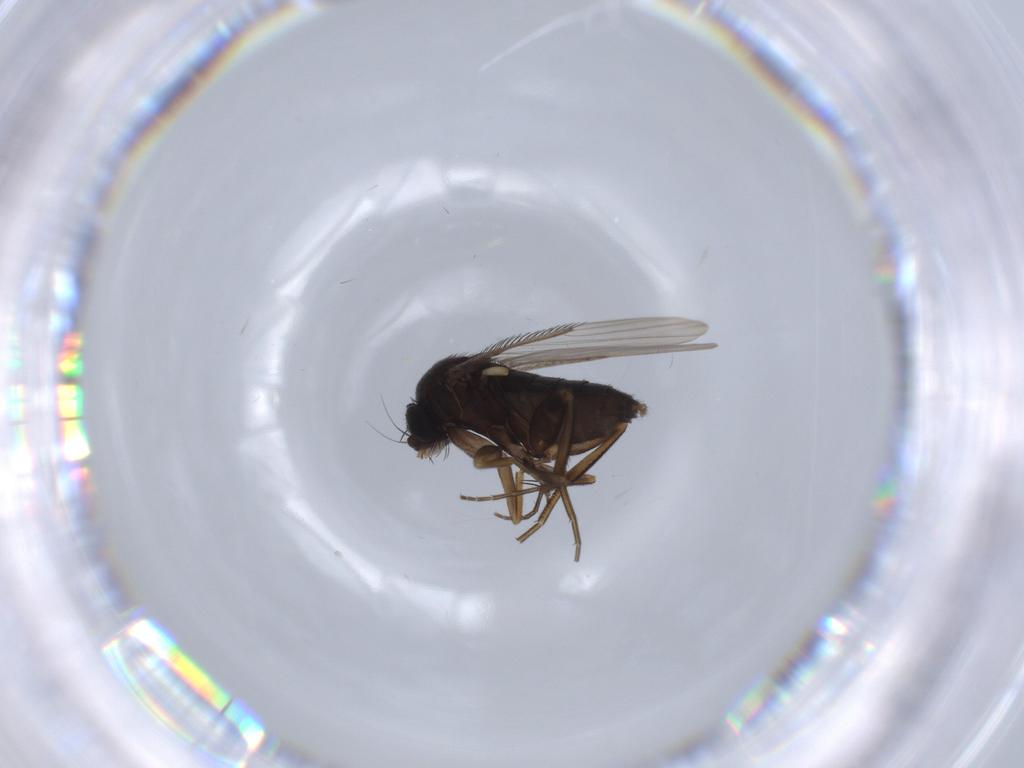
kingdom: Animalia
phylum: Arthropoda
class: Insecta
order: Diptera
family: Phoridae
